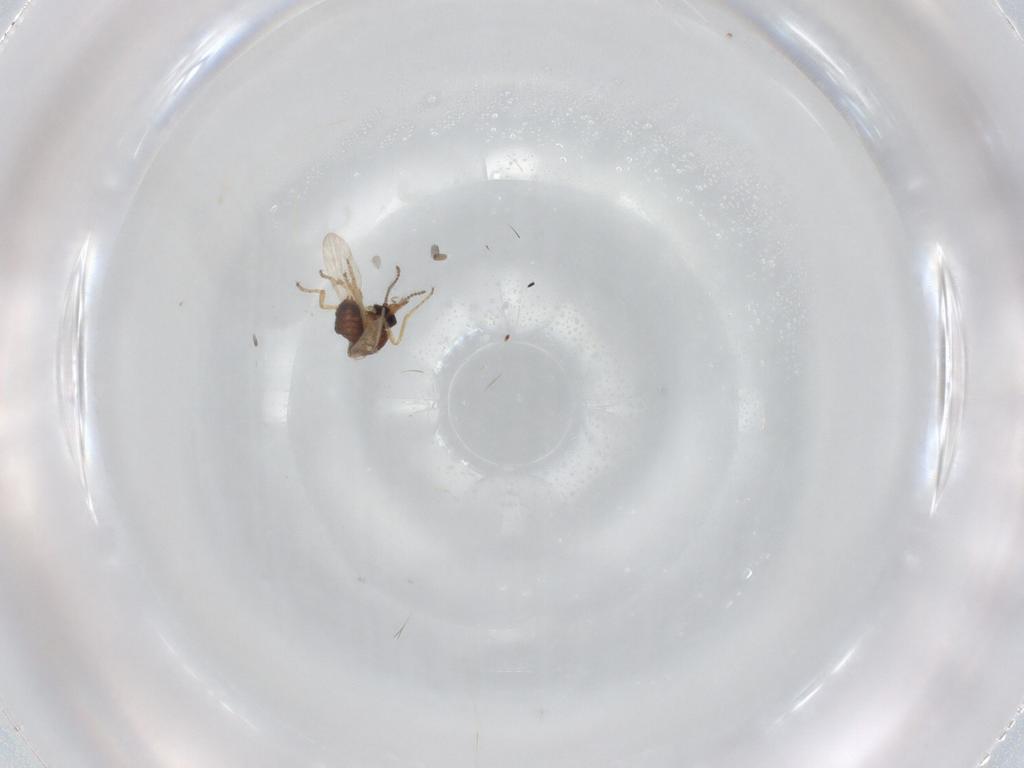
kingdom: Animalia
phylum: Arthropoda
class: Insecta
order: Diptera
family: Ceratopogonidae
